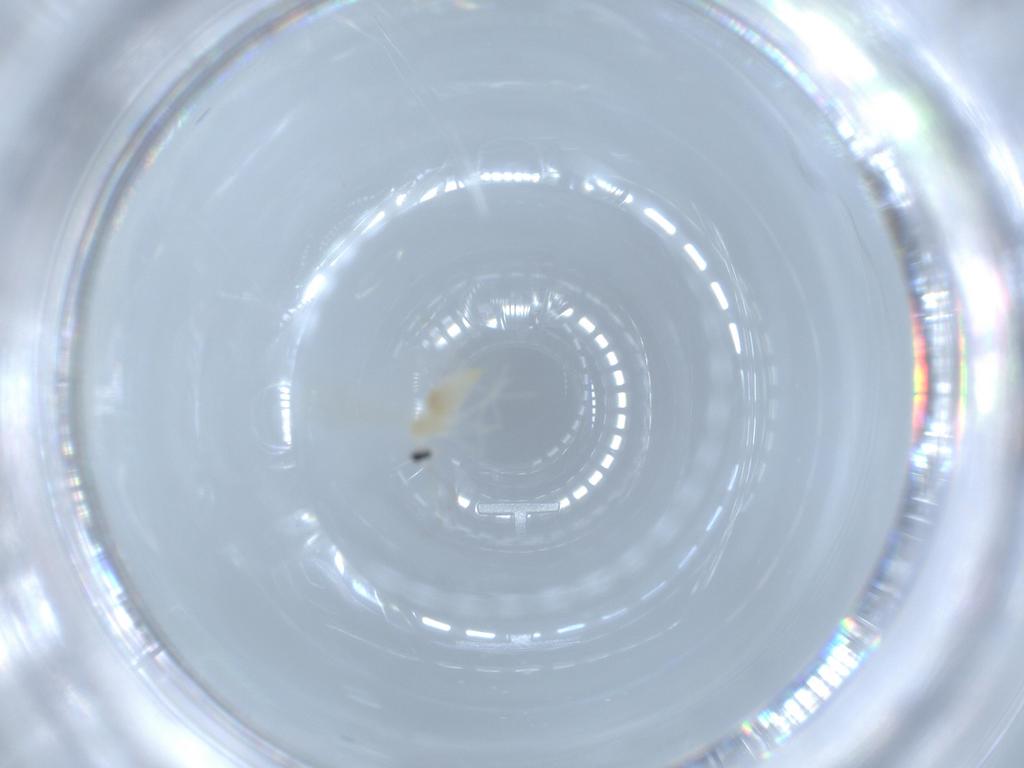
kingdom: Animalia
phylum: Arthropoda
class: Insecta
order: Diptera
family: Cecidomyiidae
